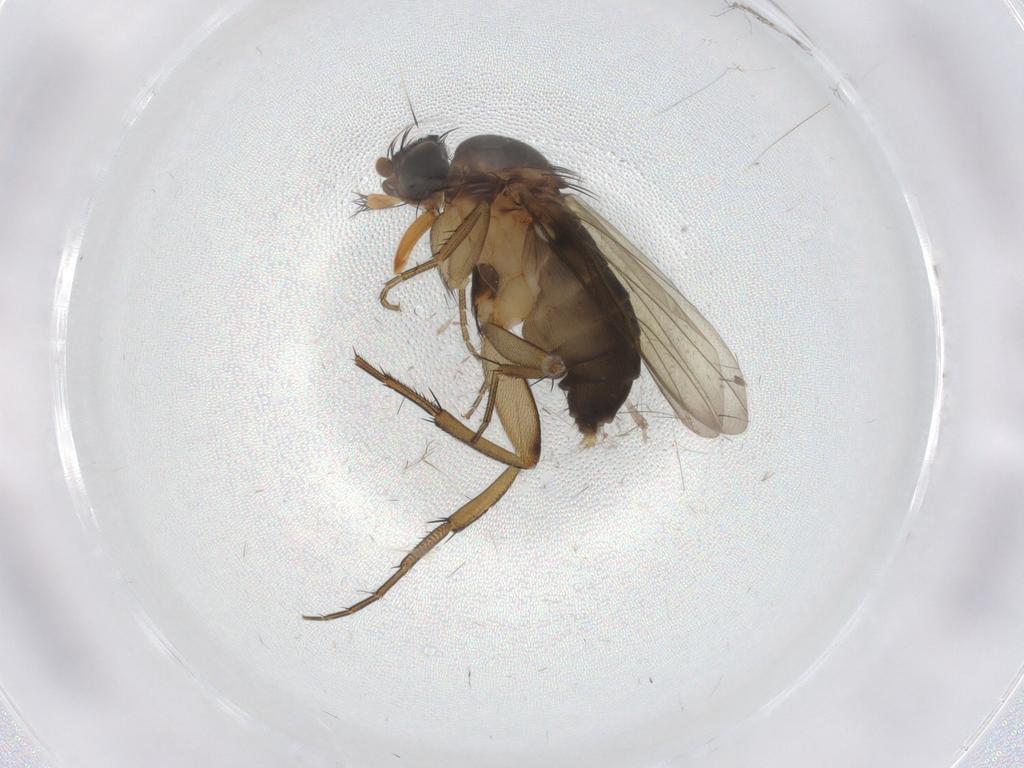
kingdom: Animalia
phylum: Arthropoda
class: Insecta
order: Diptera
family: Phoridae
